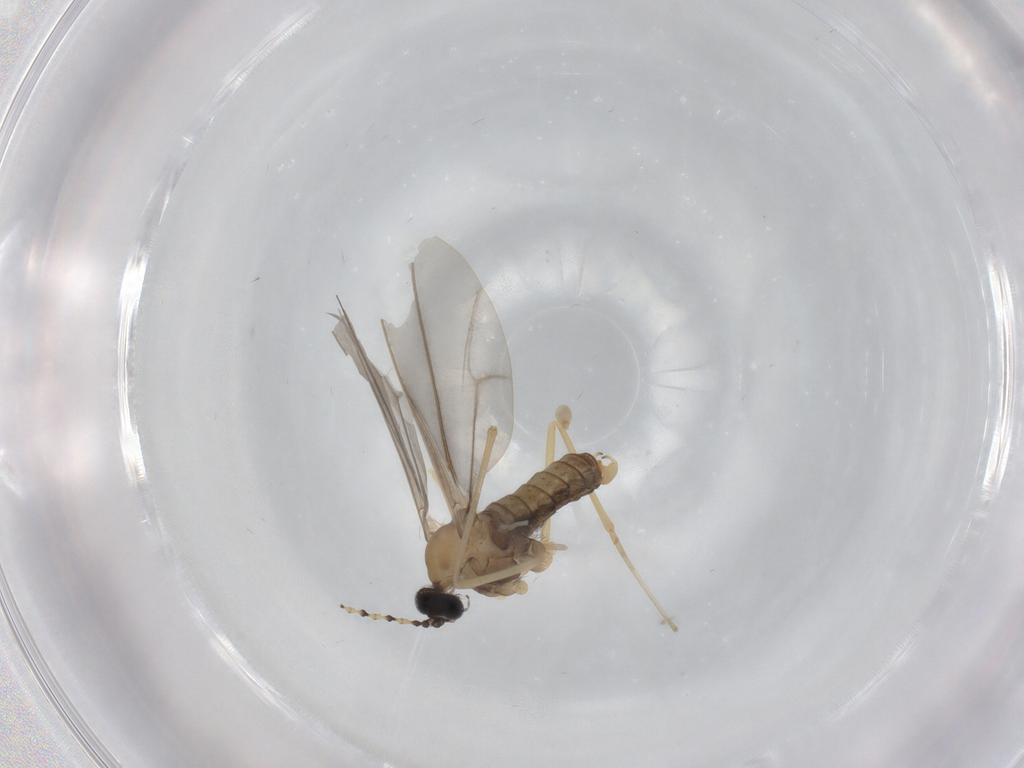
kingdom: Animalia
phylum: Arthropoda
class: Insecta
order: Diptera
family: Cecidomyiidae
